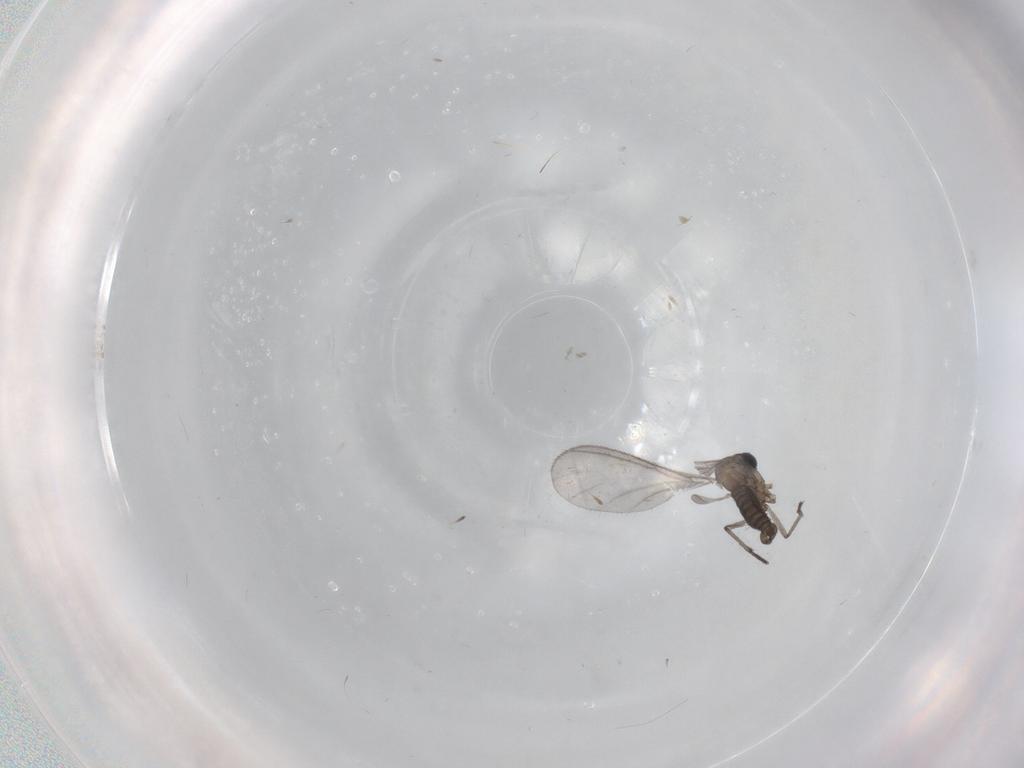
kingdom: Animalia
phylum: Arthropoda
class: Insecta
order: Diptera
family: Sciaridae
